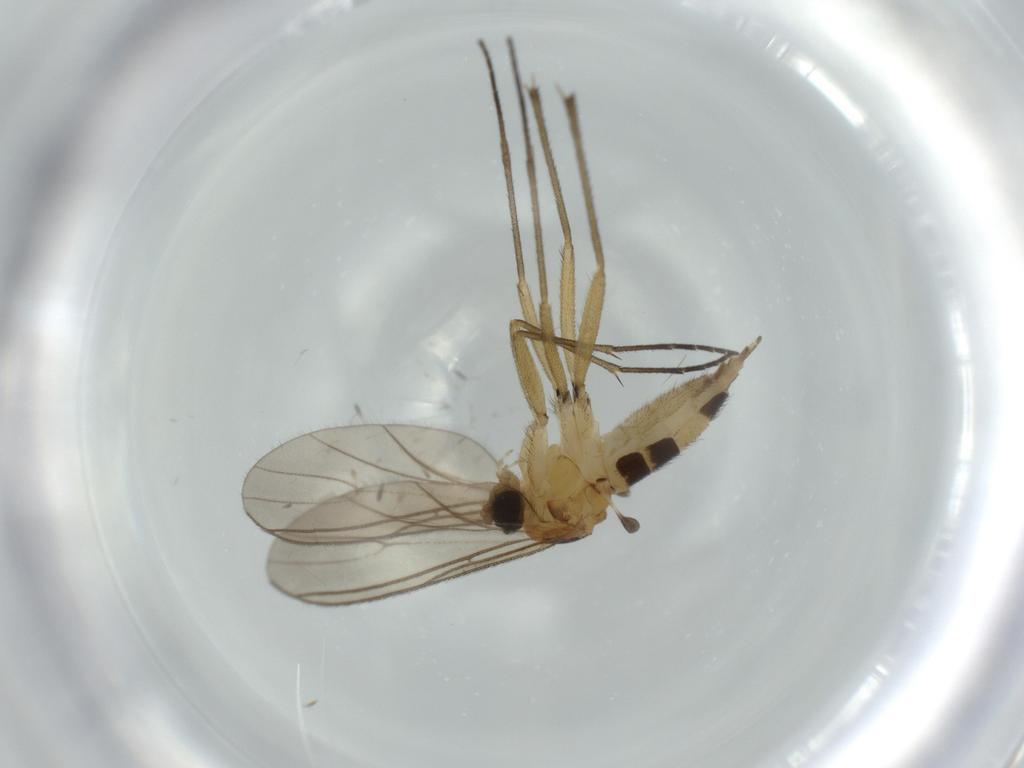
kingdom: Animalia
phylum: Arthropoda
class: Insecta
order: Diptera
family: Sciaridae
